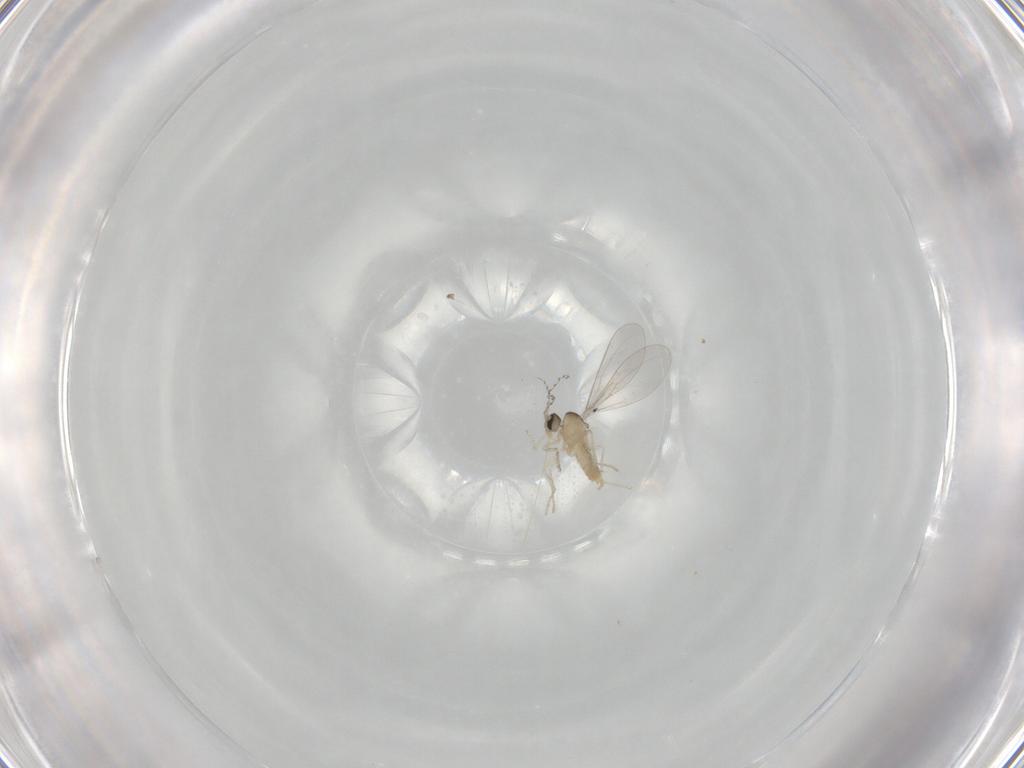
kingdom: Animalia
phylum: Arthropoda
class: Insecta
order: Diptera
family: Cecidomyiidae
